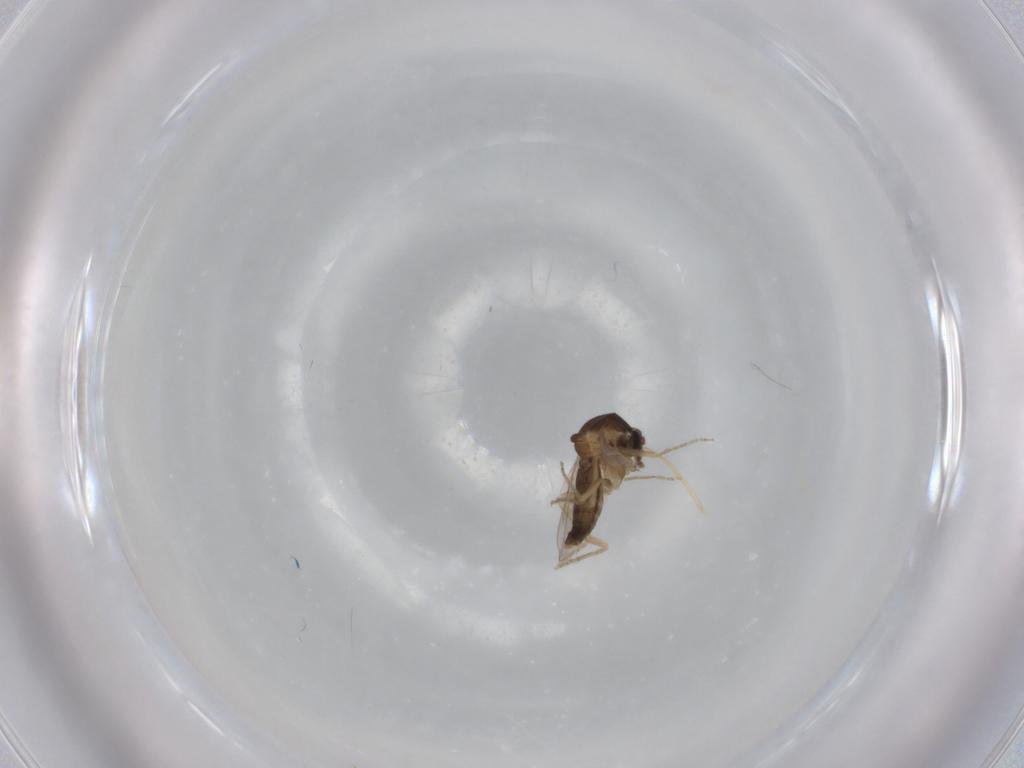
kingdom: Animalia
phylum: Arthropoda
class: Insecta
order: Diptera
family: Ceratopogonidae
